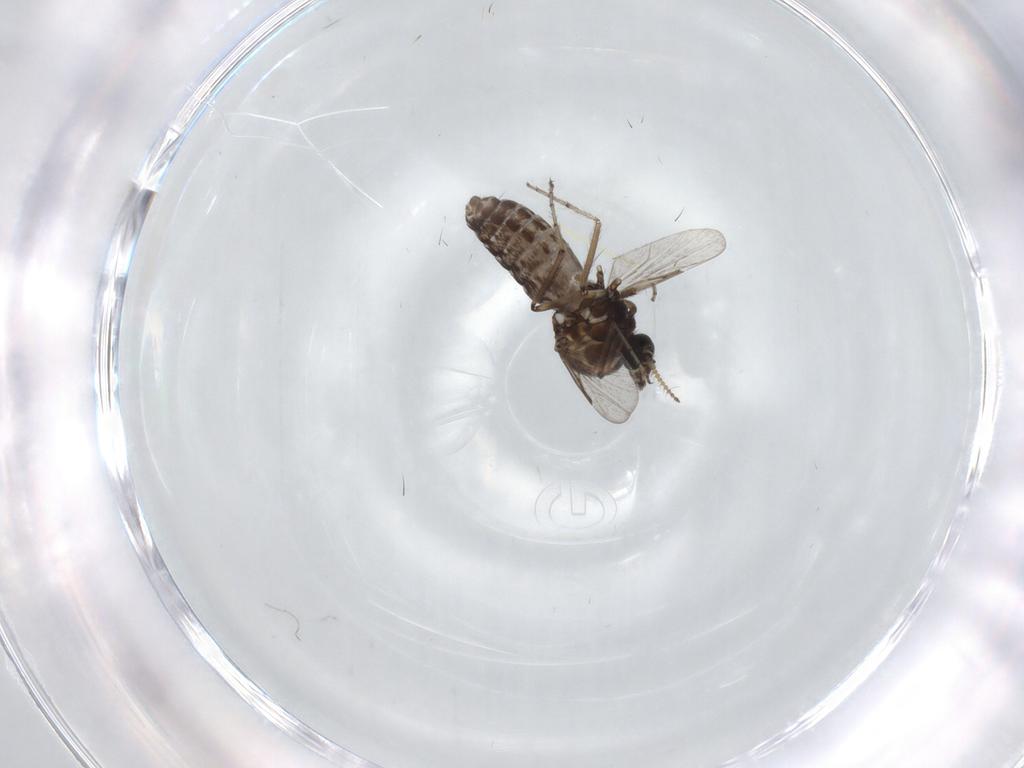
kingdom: Animalia
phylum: Arthropoda
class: Insecta
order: Diptera
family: Ceratopogonidae
